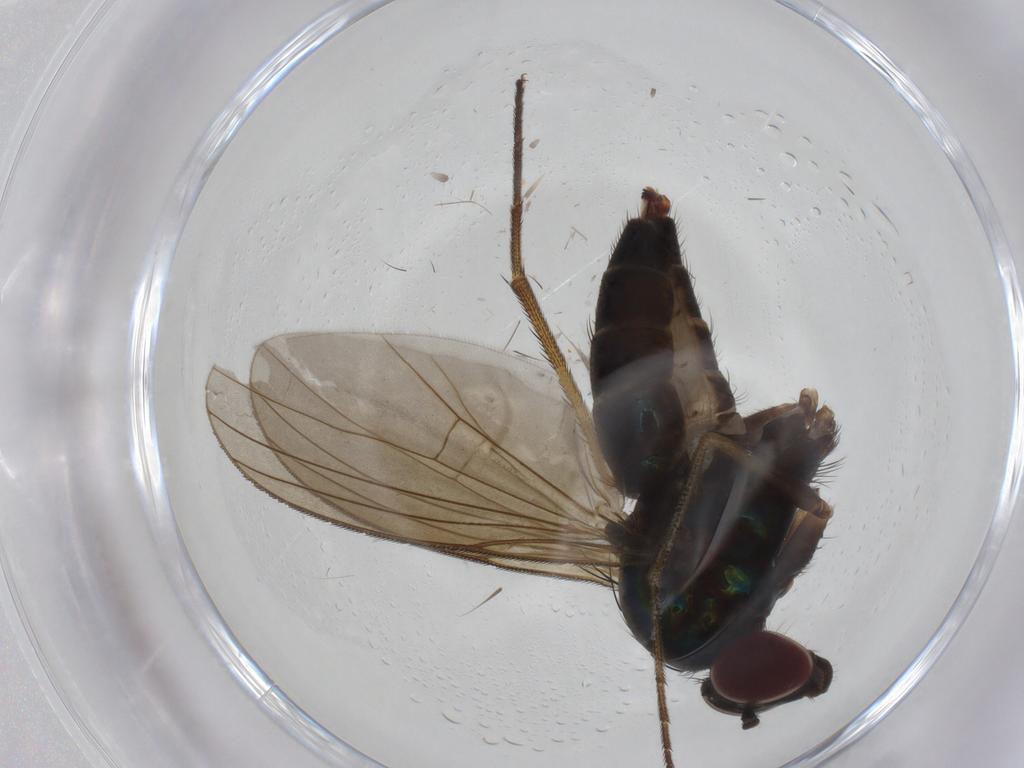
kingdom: Animalia
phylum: Arthropoda
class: Insecta
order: Diptera
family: Dolichopodidae
